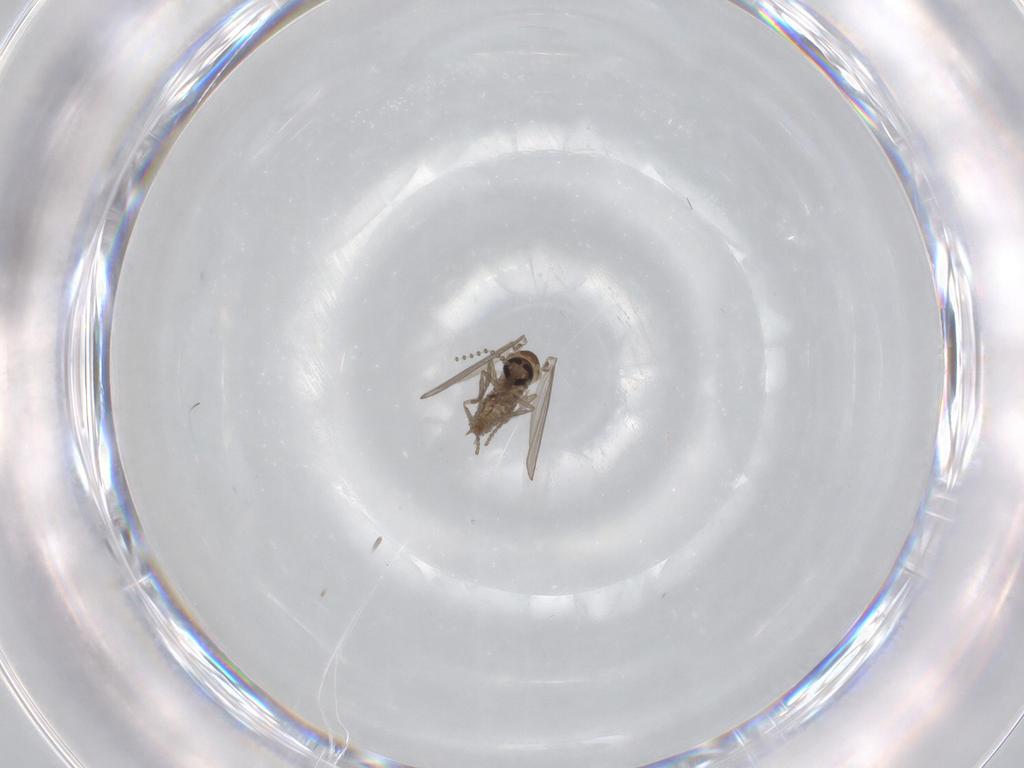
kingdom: Animalia
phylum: Arthropoda
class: Insecta
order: Diptera
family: Psychodidae
